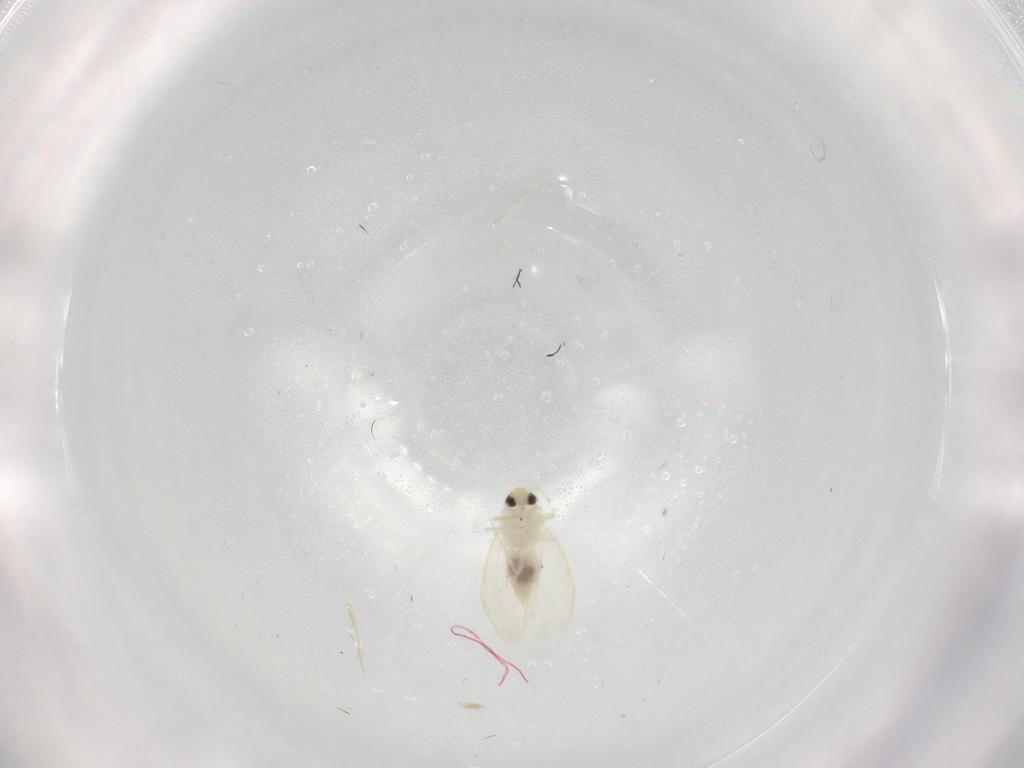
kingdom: Animalia
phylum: Arthropoda
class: Insecta
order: Hemiptera
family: Aleyrodidae
